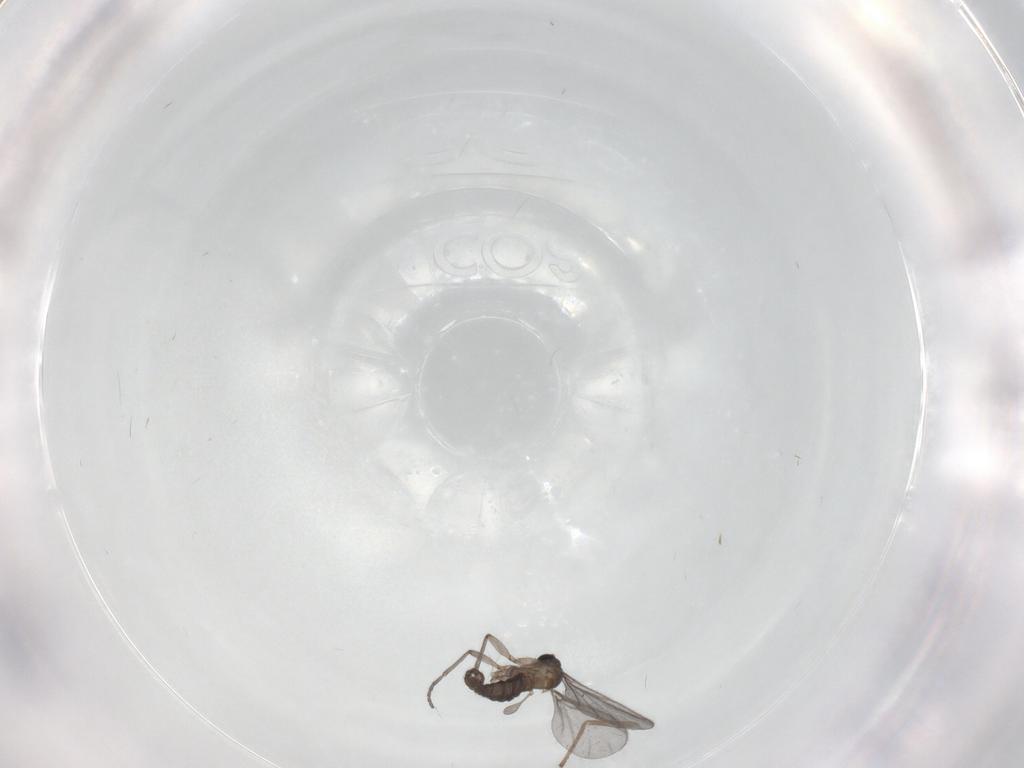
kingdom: Animalia
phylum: Arthropoda
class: Insecta
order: Diptera
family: Sciaridae
